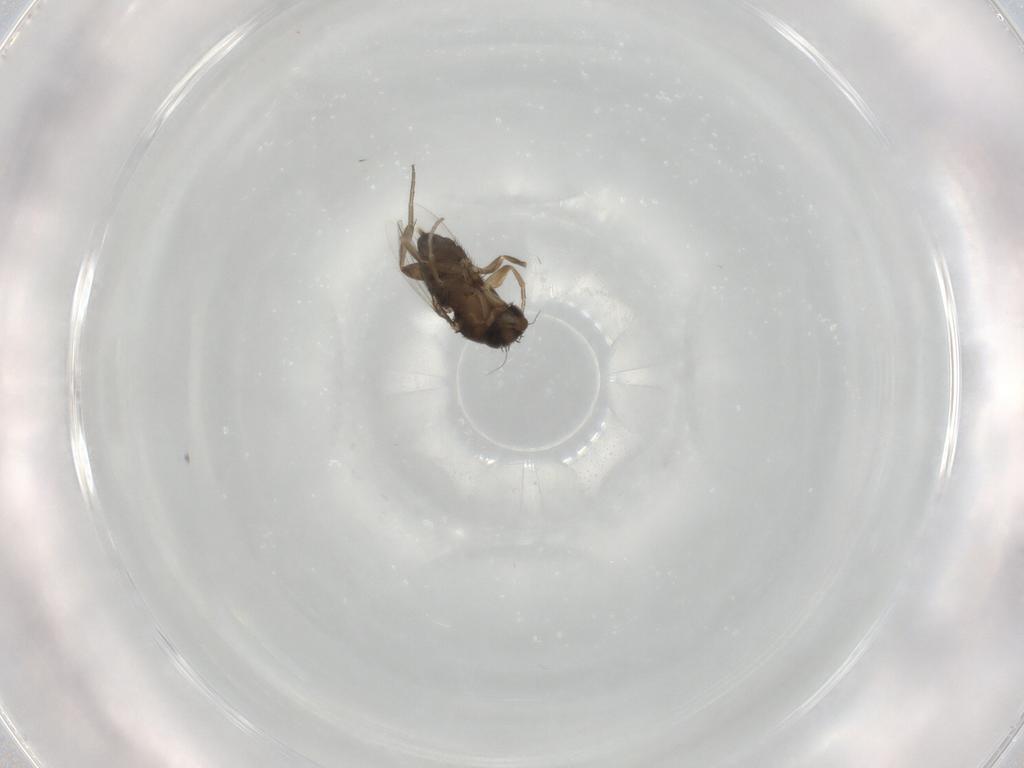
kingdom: Animalia
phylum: Arthropoda
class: Insecta
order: Diptera
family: Phoridae
